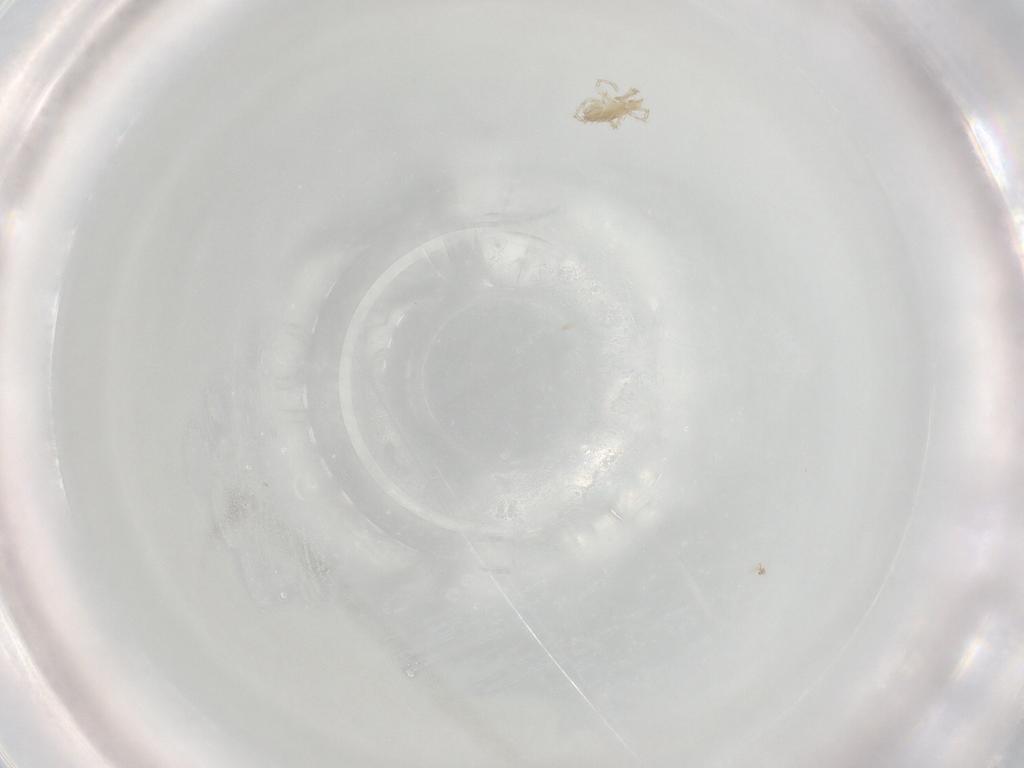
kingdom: Animalia
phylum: Arthropoda
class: Arachnida
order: Trombidiformes
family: Erythraeidae
